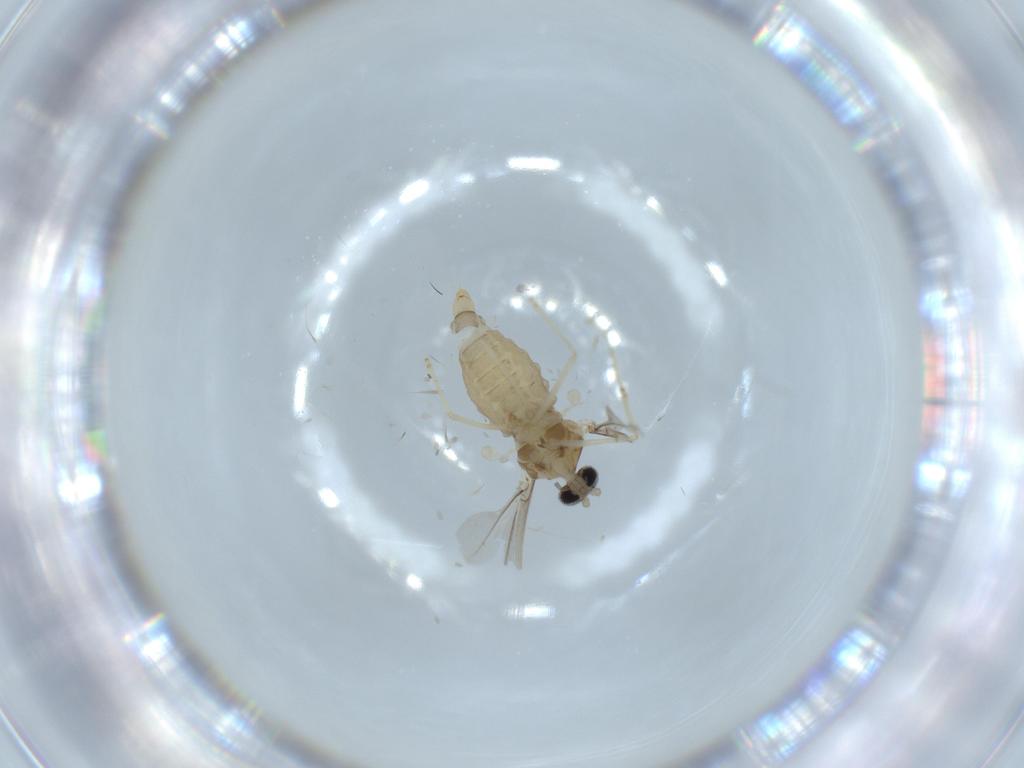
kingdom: Animalia
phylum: Arthropoda
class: Insecta
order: Diptera
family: Cecidomyiidae
